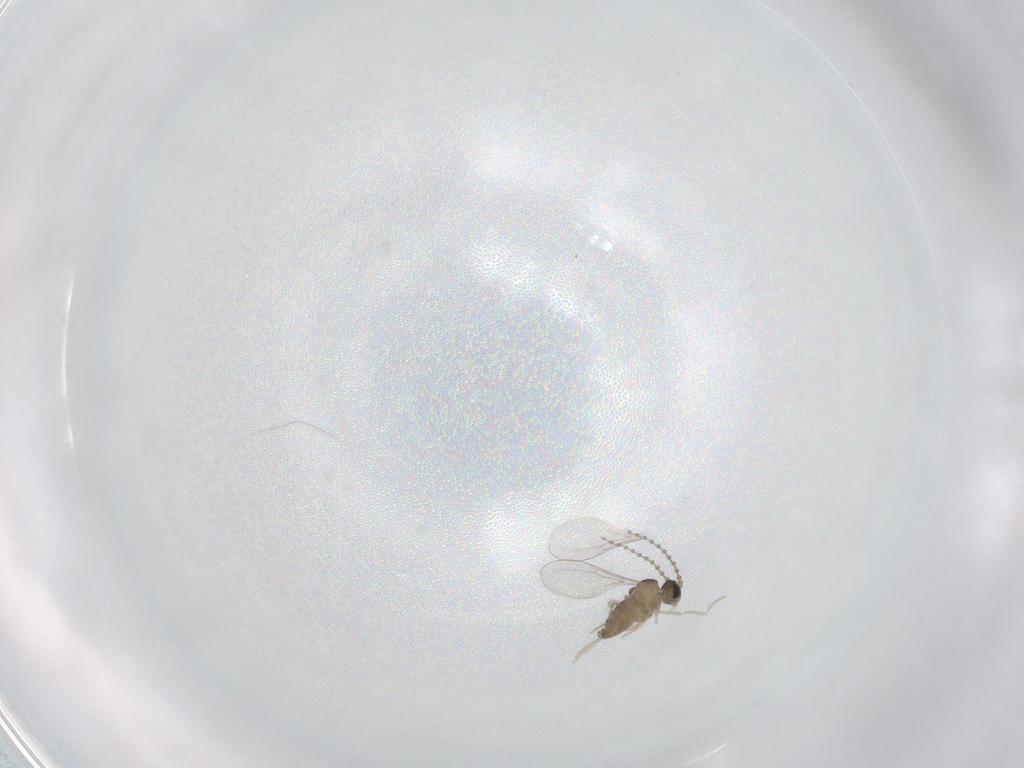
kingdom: Animalia
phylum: Arthropoda
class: Insecta
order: Diptera
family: Cecidomyiidae
